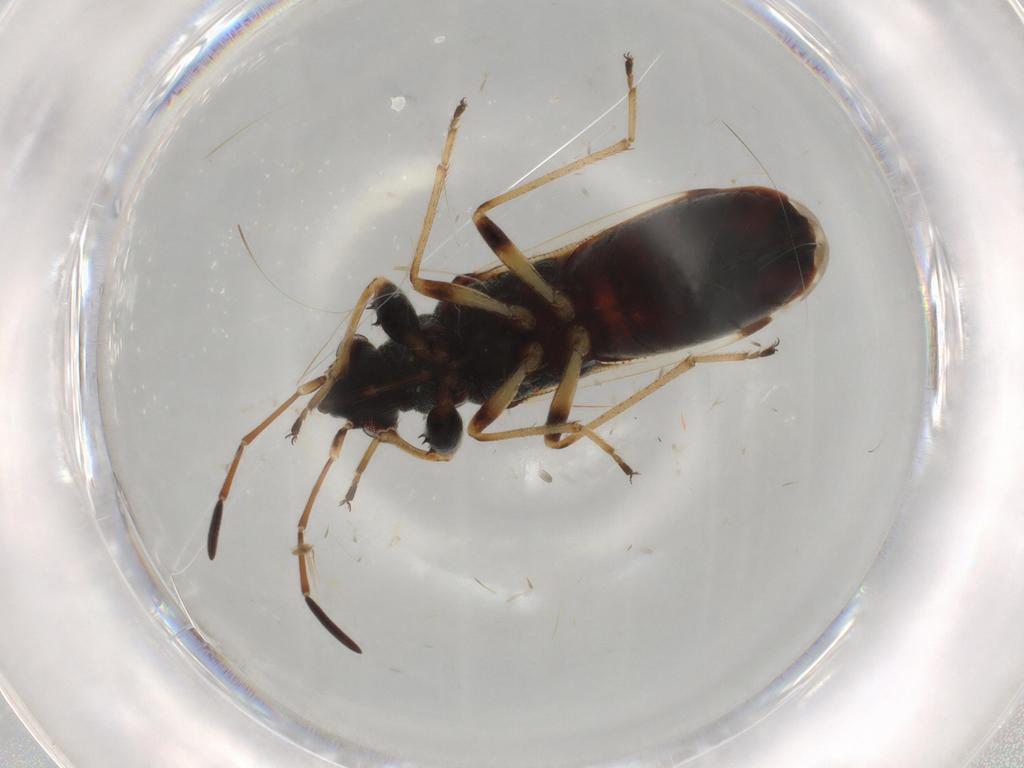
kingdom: Animalia
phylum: Arthropoda
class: Insecta
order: Hemiptera
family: Rhyparochromidae
